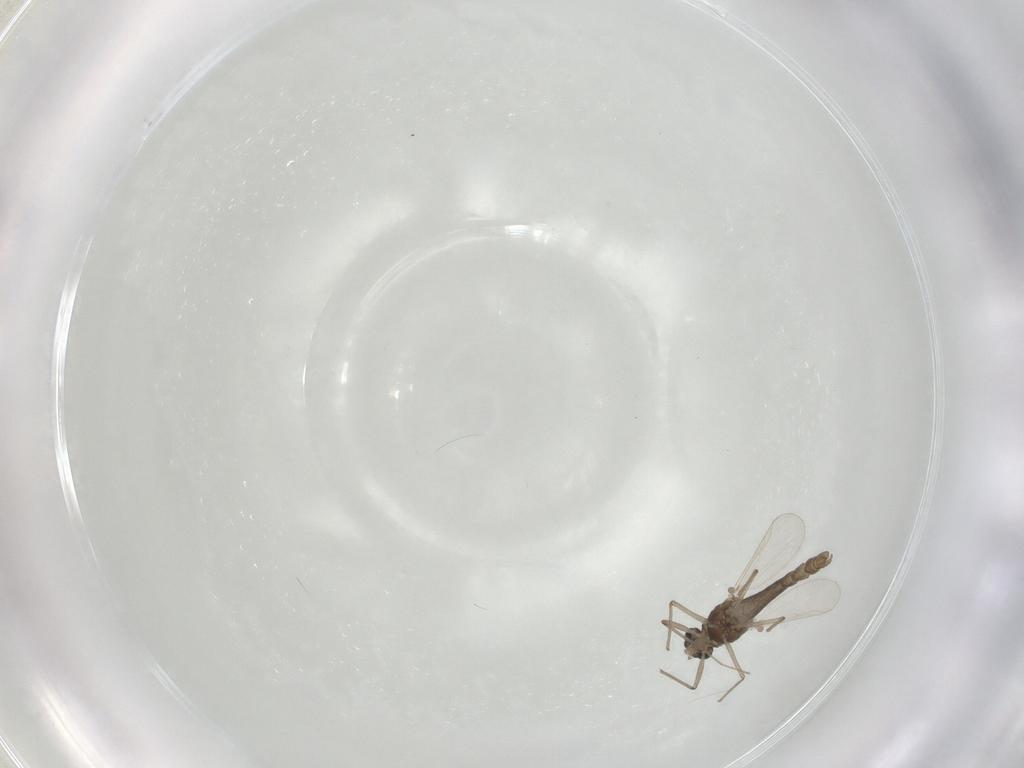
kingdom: Animalia
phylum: Arthropoda
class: Insecta
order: Diptera
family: Chironomidae
